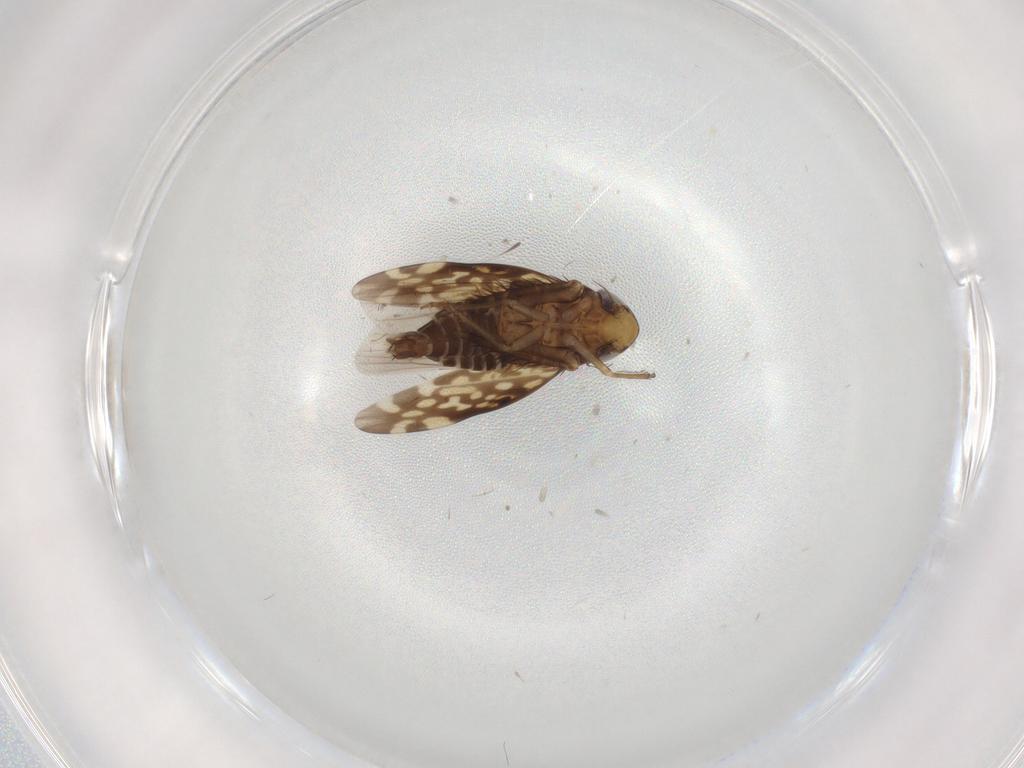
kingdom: Animalia
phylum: Arthropoda
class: Insecta
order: Hemiptera
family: Cicadellidae
